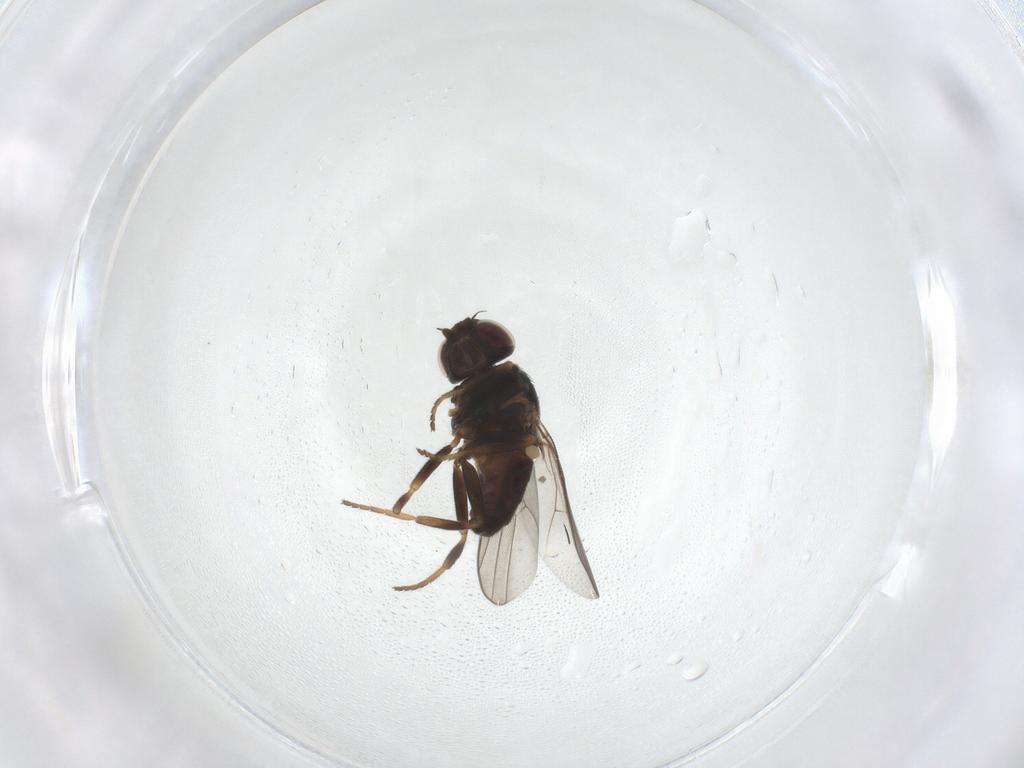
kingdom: Animalia
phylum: Arthropoda
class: Insecta
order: Diptera
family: Chloropidae
